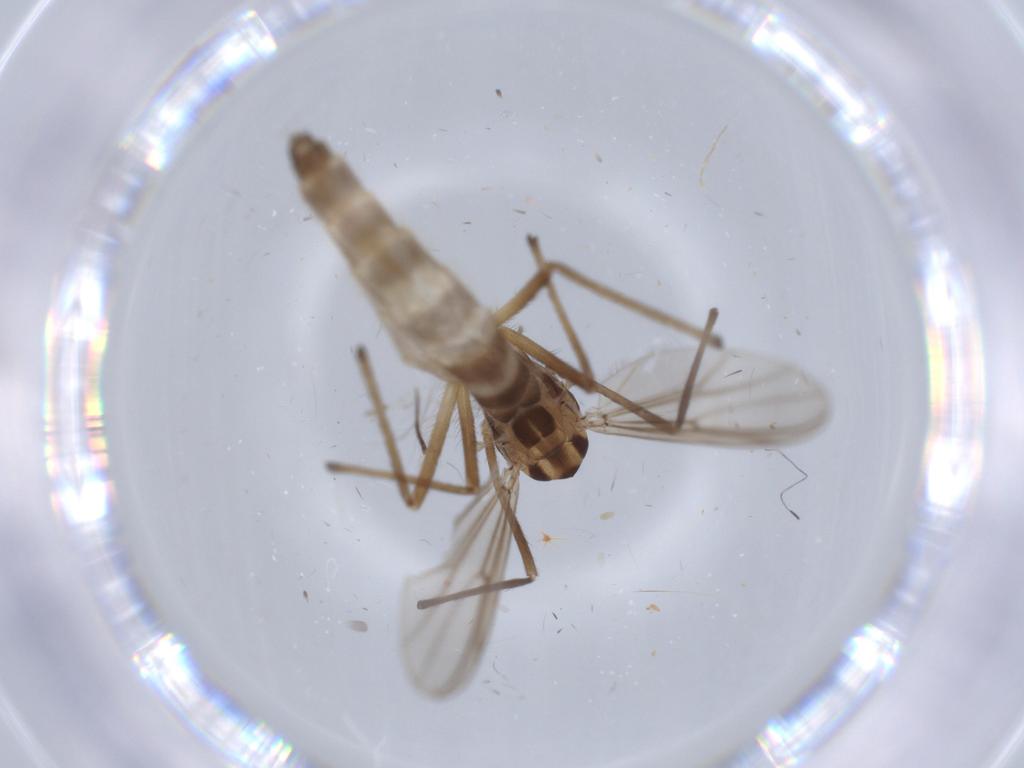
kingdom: Animalia
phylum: Arthropoda
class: Insecta
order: Diptera
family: Chironomidae
